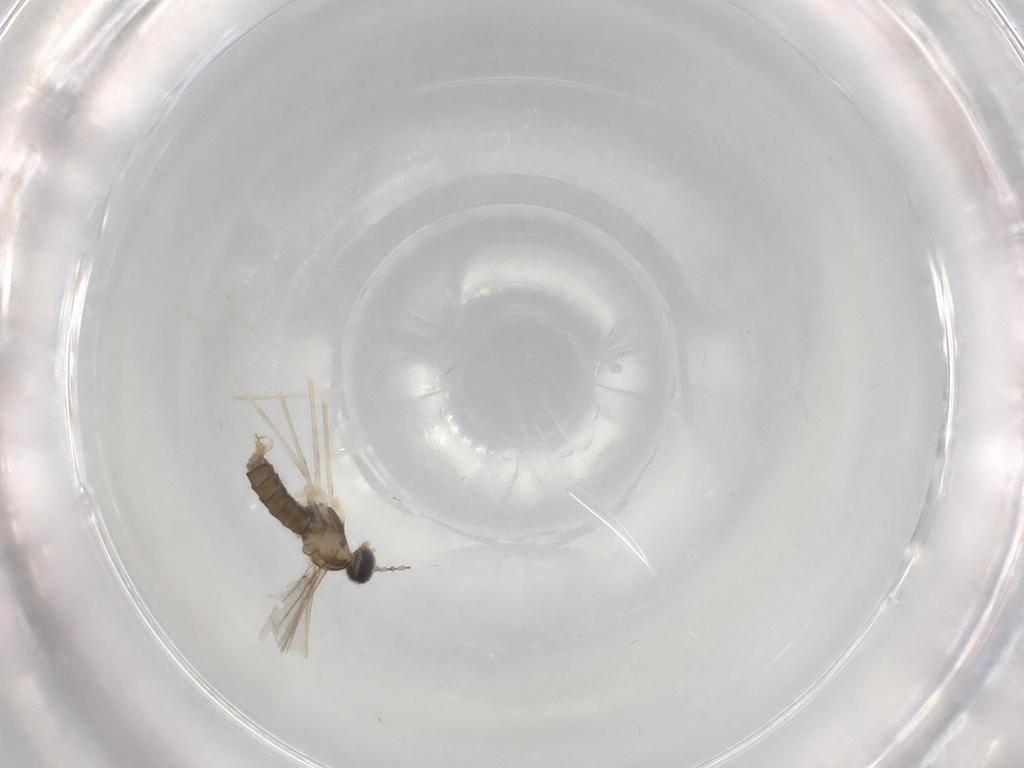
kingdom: Animalia
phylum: Arthropoda
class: Insecta
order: Diptera
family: Cecidomyiidae
